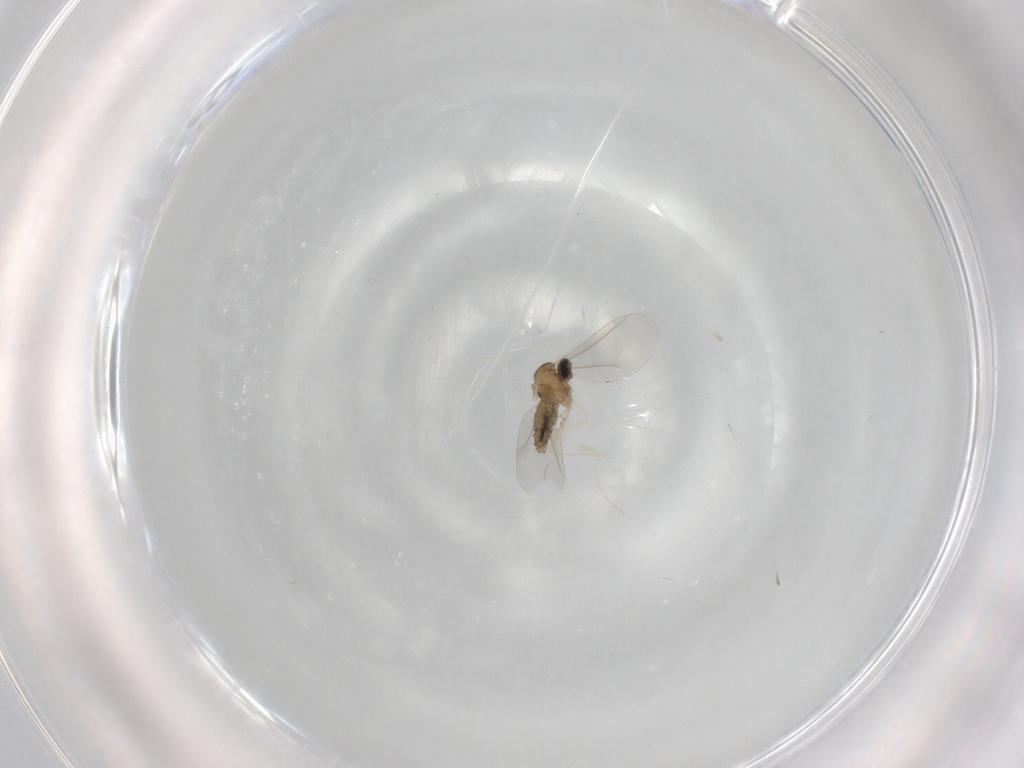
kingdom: Animalia
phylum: Arthropoda
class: Insecta
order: Diptera
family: Cecidomyiidae
